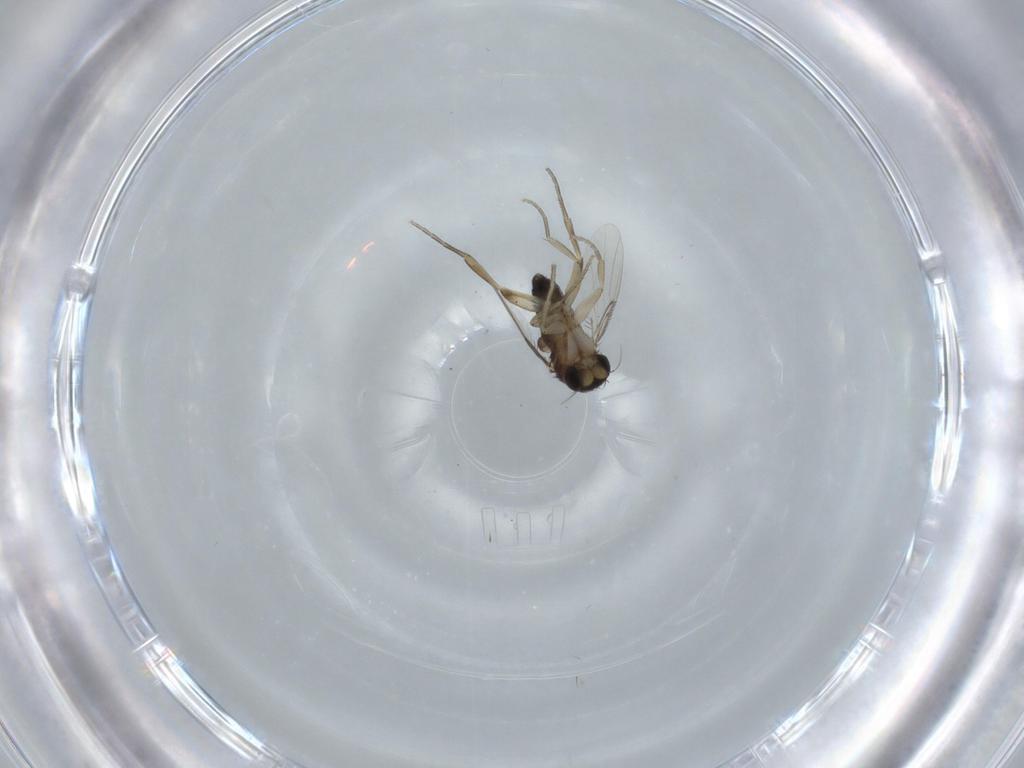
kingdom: Animalia
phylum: Arthropoda
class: Insecta
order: Diptera
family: Phoridae
